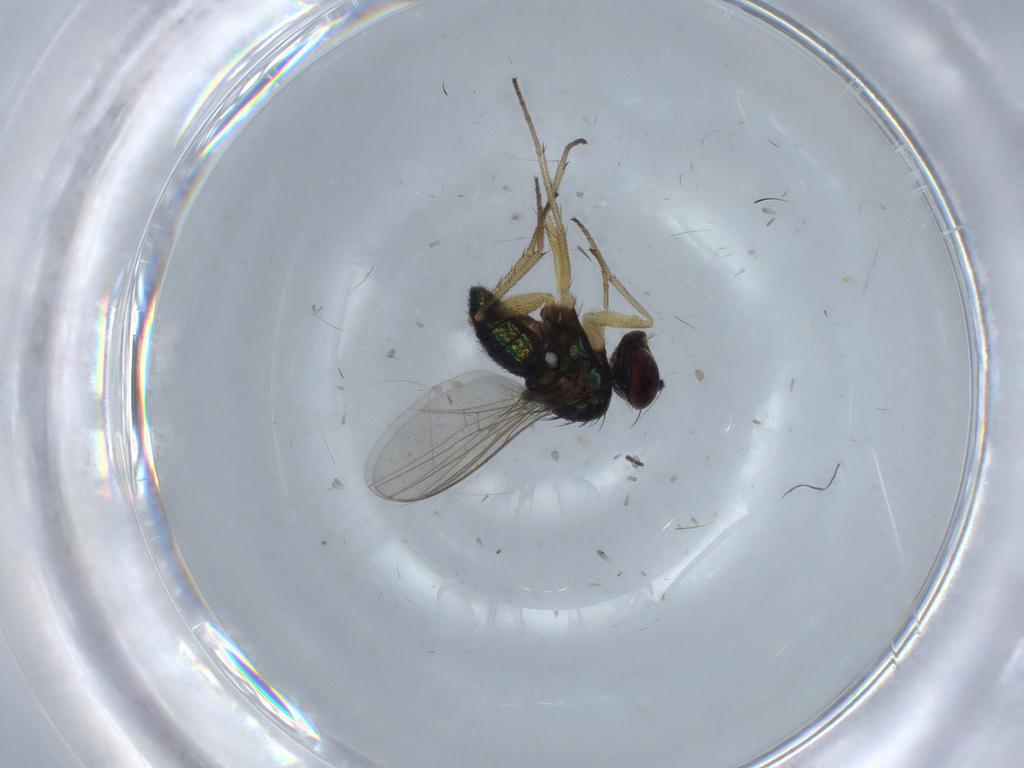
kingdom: Animalia
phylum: Arthropoda
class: Insecta
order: Diptera
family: Dolichopodidae
